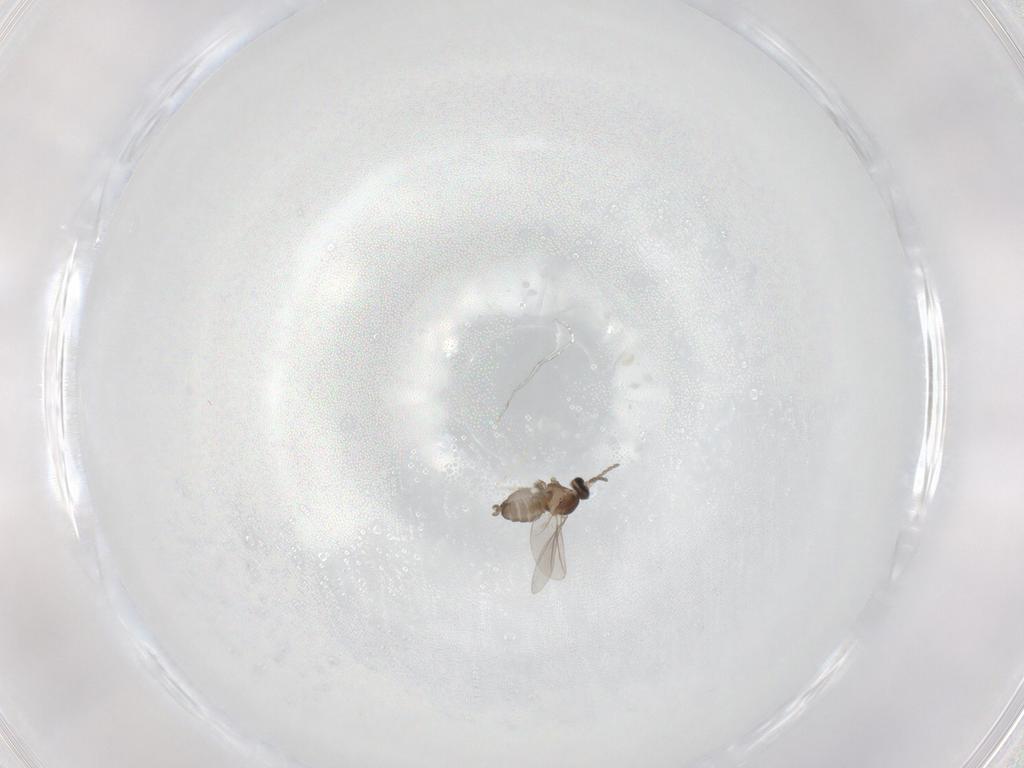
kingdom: Animalia
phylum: Arthropoda
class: Insecta
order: Diptera
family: Cecidomyiidae
